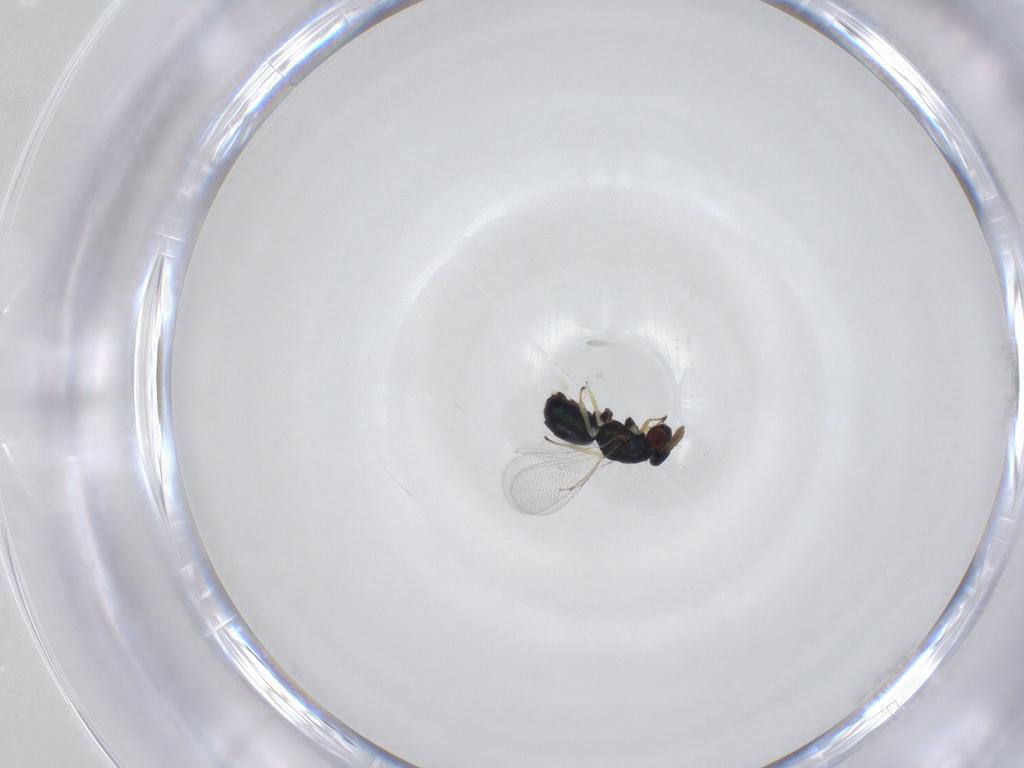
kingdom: Animalia
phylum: Arthropoda
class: Insecta
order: Hymenoptera
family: Eulophidae
